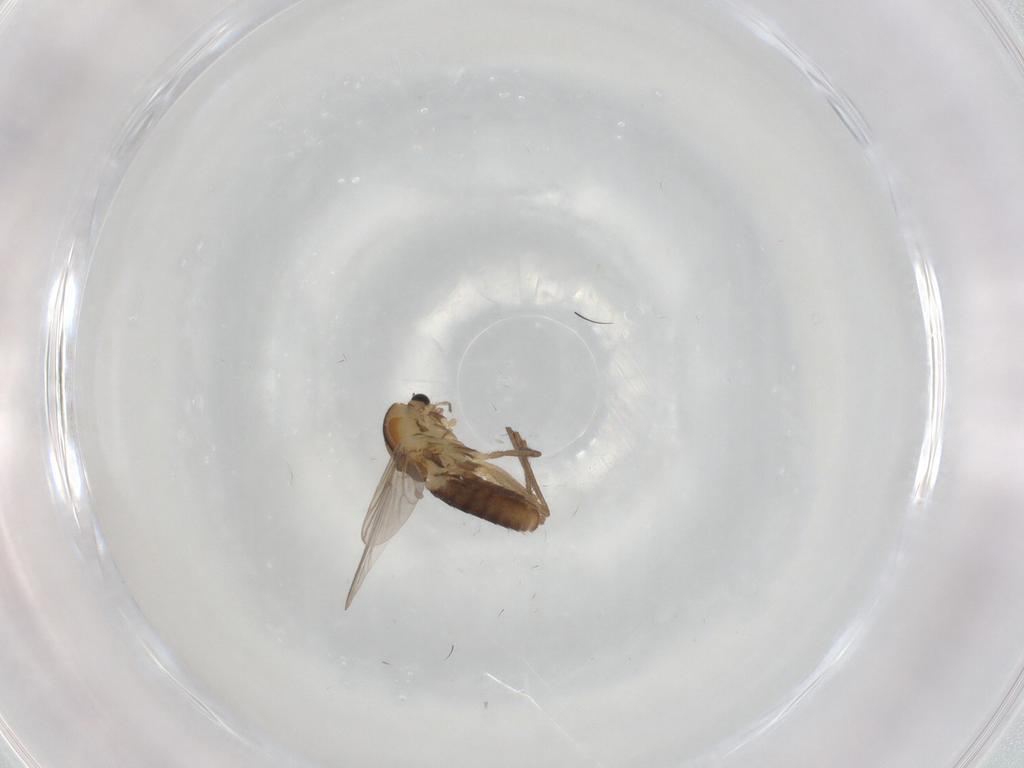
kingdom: Animalia
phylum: Arthropoda
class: Insecta
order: Diptera
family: Chironomidae
